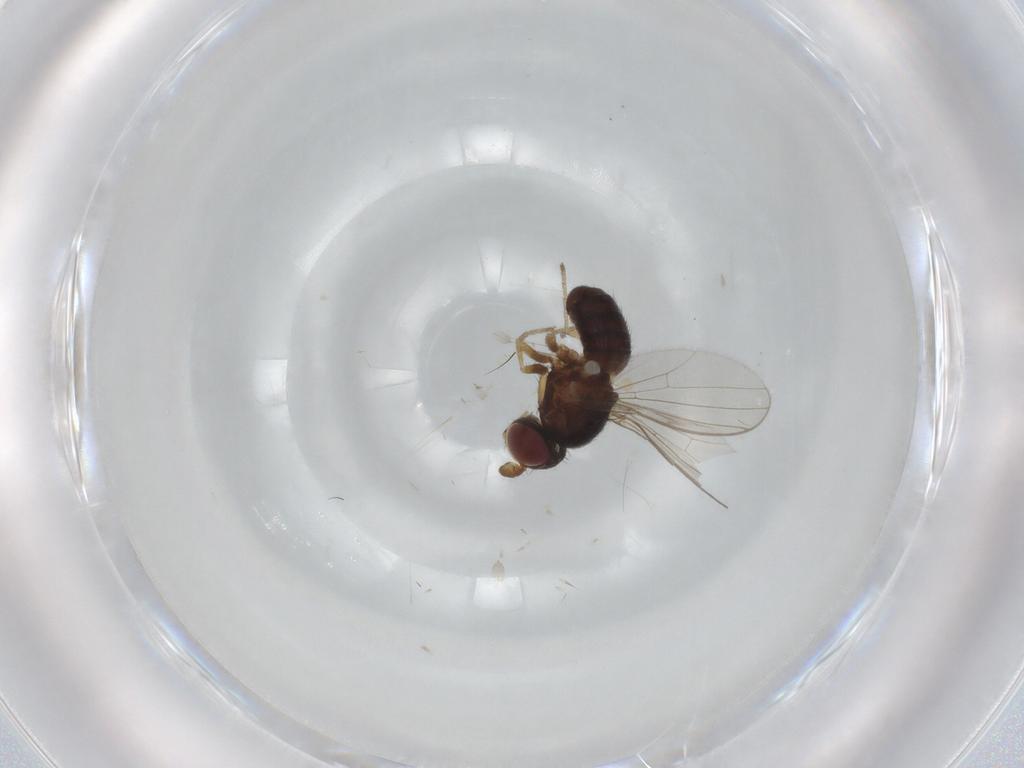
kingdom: Animalia
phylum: Arthropoda
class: Insecta
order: Diptera
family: Chloropidae
